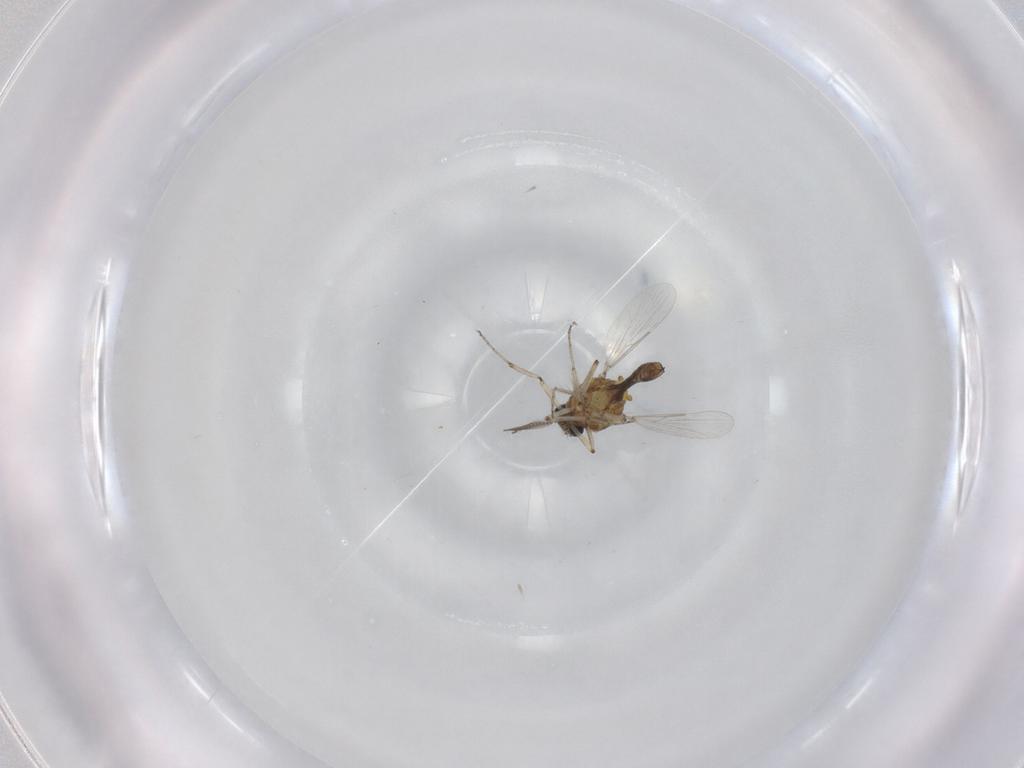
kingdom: Animalia
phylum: Arthropoda
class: Insecta
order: Diptera
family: Ceratopogonidae
